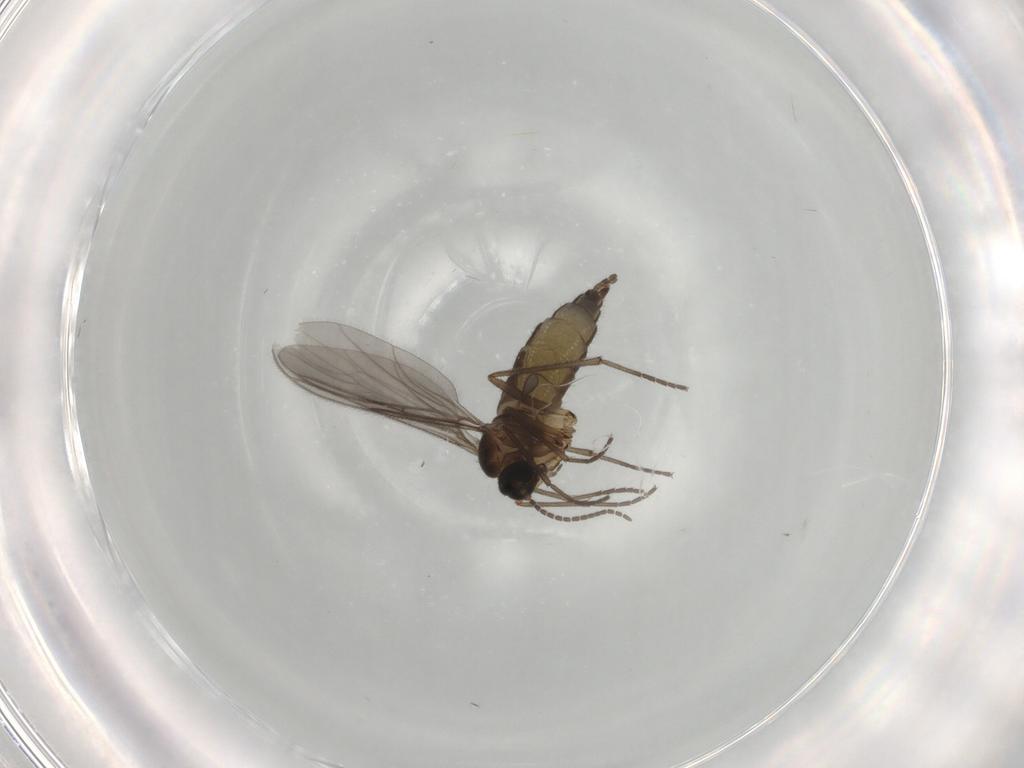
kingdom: Animalia
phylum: Arthropoda
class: Insecta
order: Diptera
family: Sciaridae
